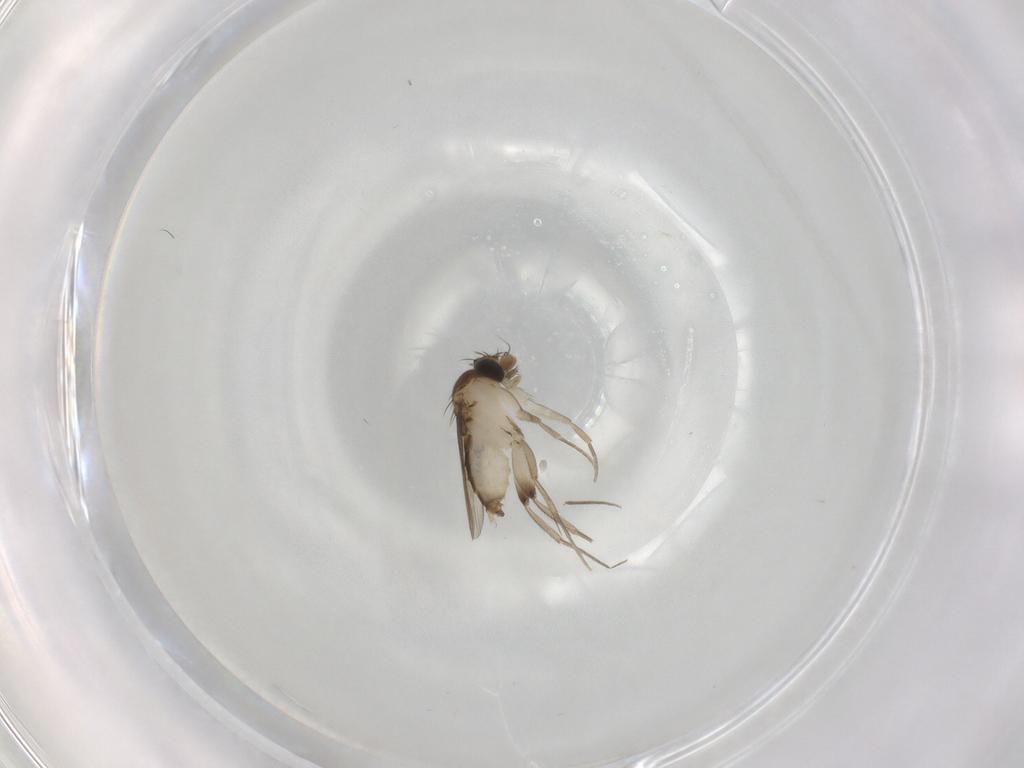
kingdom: Animalia
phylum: Arthropoda
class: Insecta
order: Diptera
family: Phoridae
